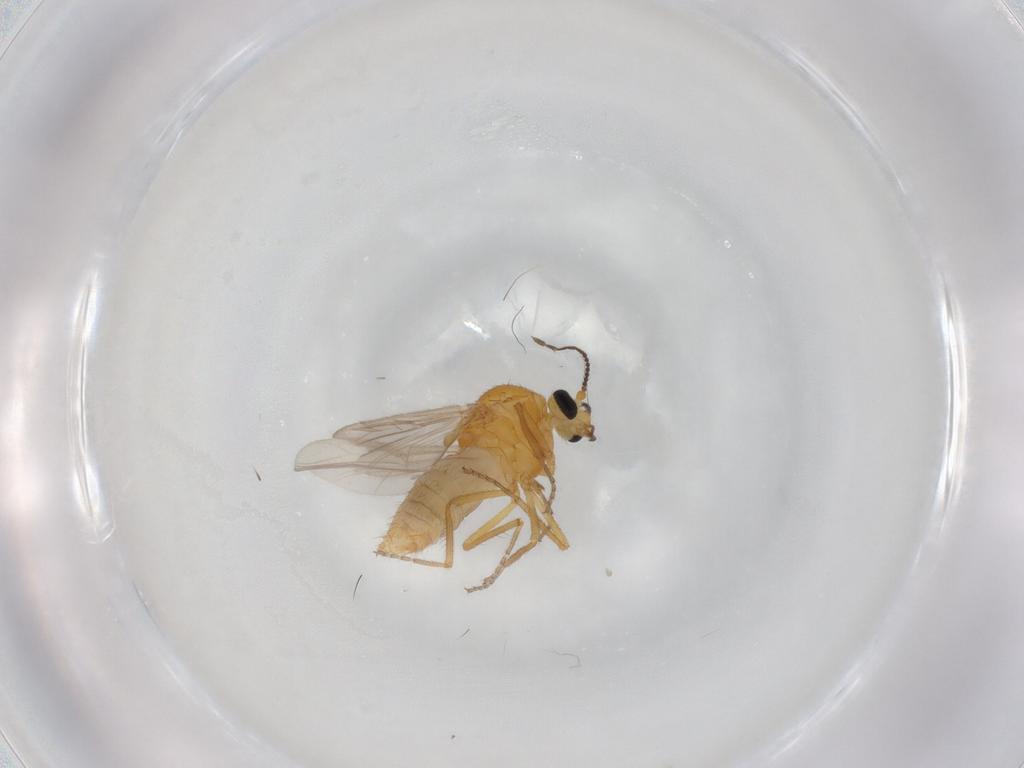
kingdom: Animalia
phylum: Arthropoda
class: Insecta
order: Diptera
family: Ceratopogonidae
